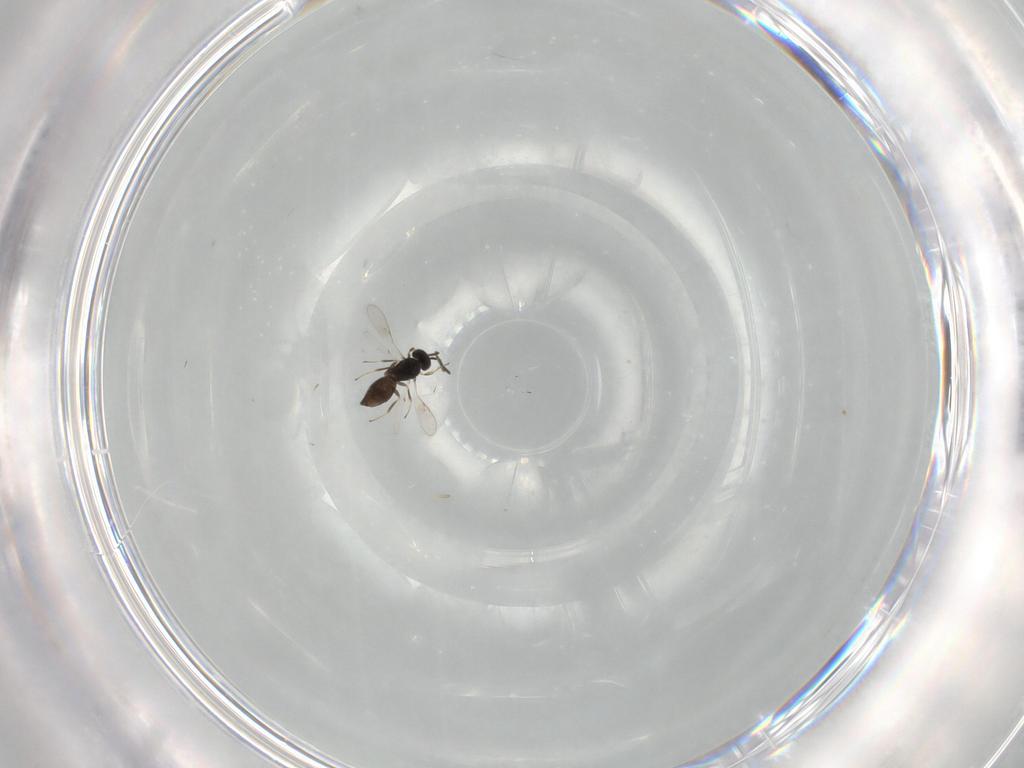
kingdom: Animalia
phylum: Arthropoda
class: Insecta
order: Hymenoptera
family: Scelionidae
